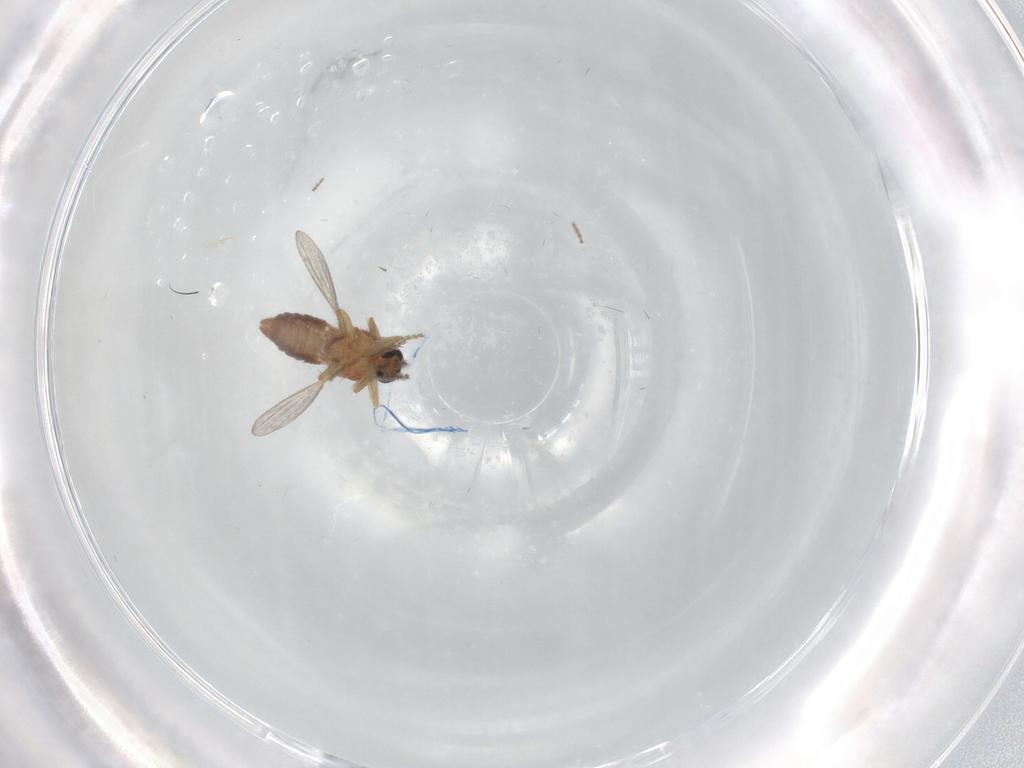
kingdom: Animalia
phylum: Arthropoda
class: Insecta
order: Diptera
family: Ceratopogonidae
